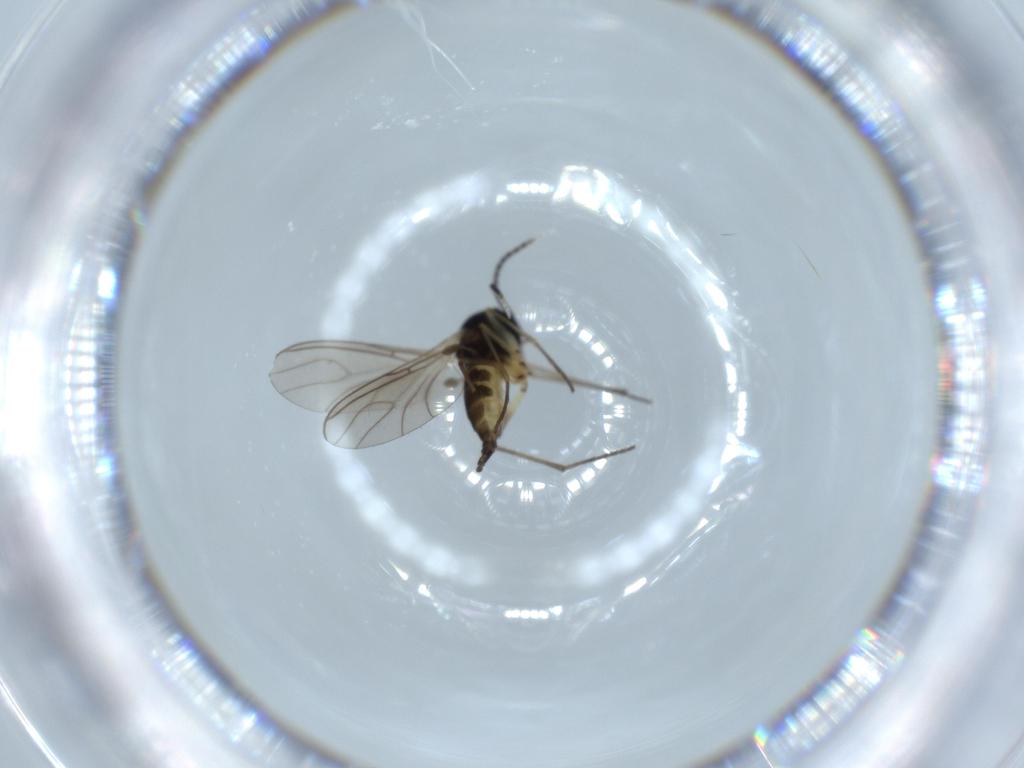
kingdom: Animalia
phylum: Arthropoda
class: Insecta
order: Diptera
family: Sciaridae
